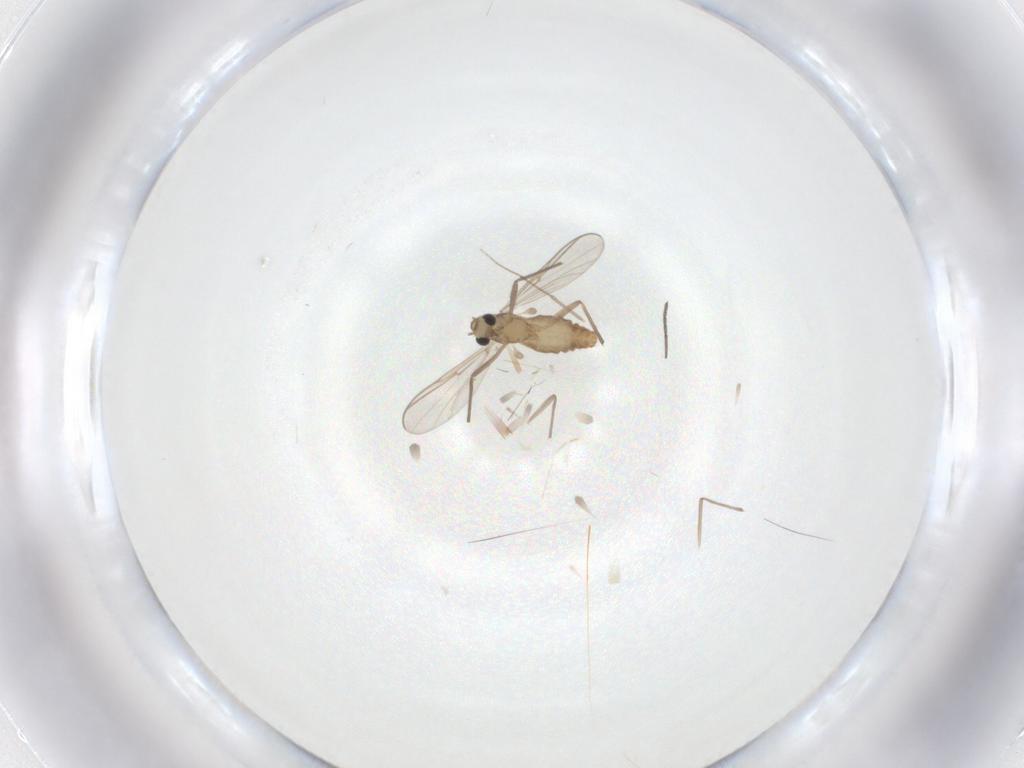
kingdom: Animalia
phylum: Arthropoda
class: Insecta
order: Diptera
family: Chironomidae
